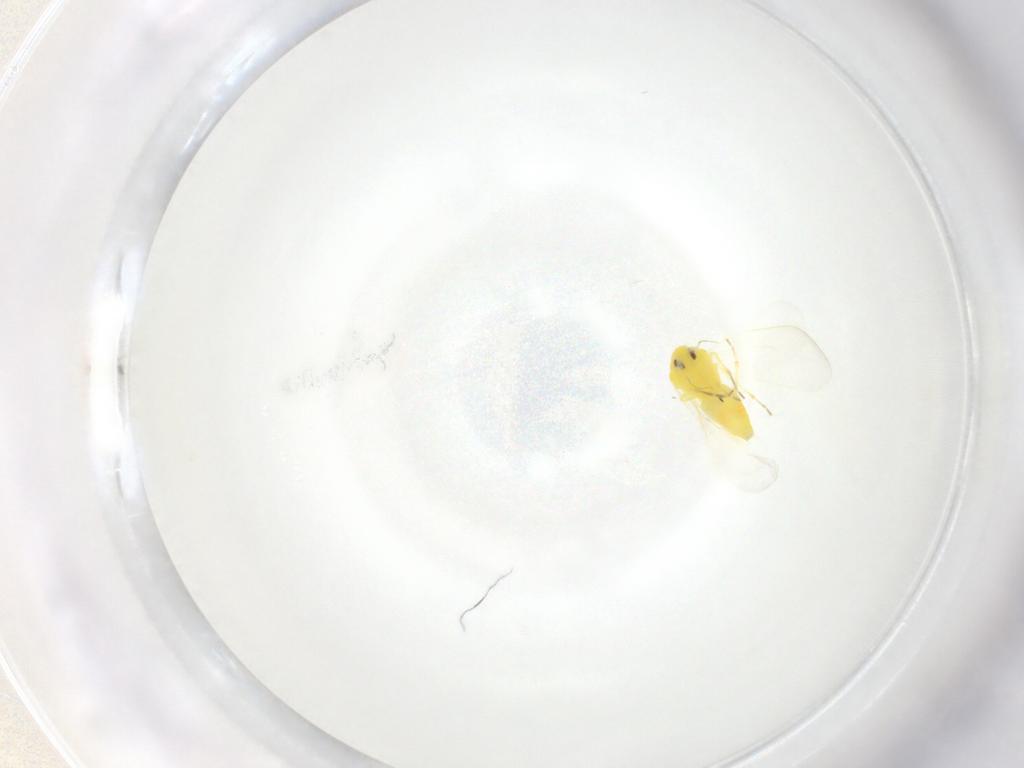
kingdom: Animalia
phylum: Arthropoda
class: Insecta
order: Hemiptera
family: Aleyrodidae
